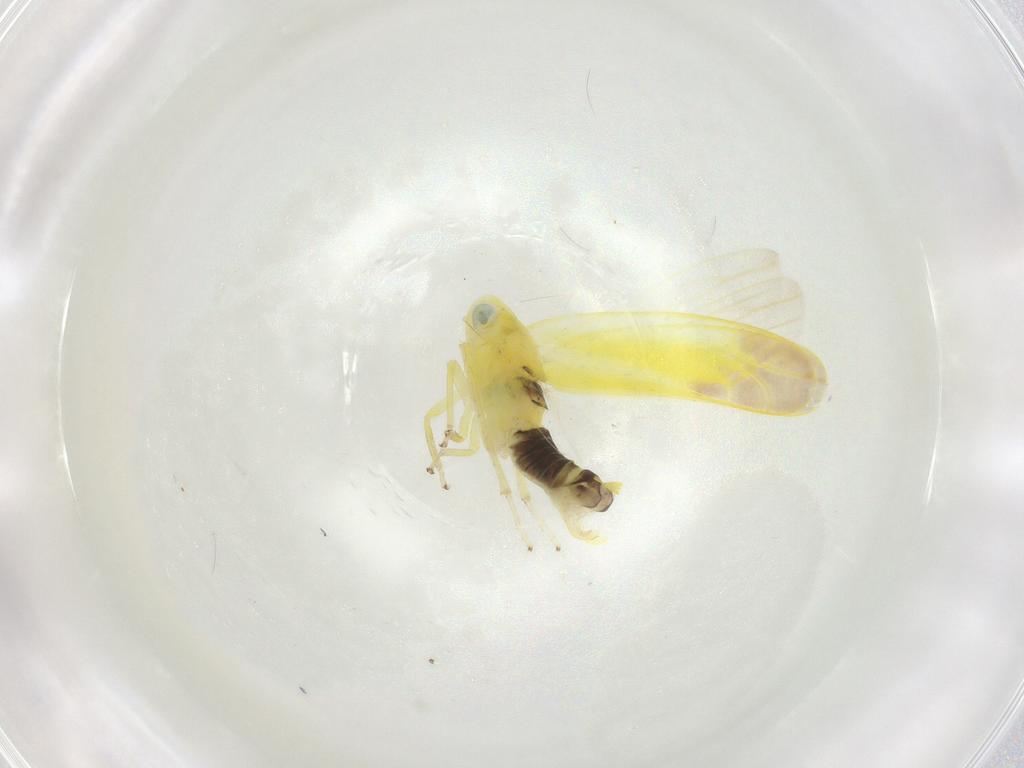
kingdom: Animalia
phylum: Arthropoda
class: Insecta
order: Hemiptera
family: Cicadellidae
